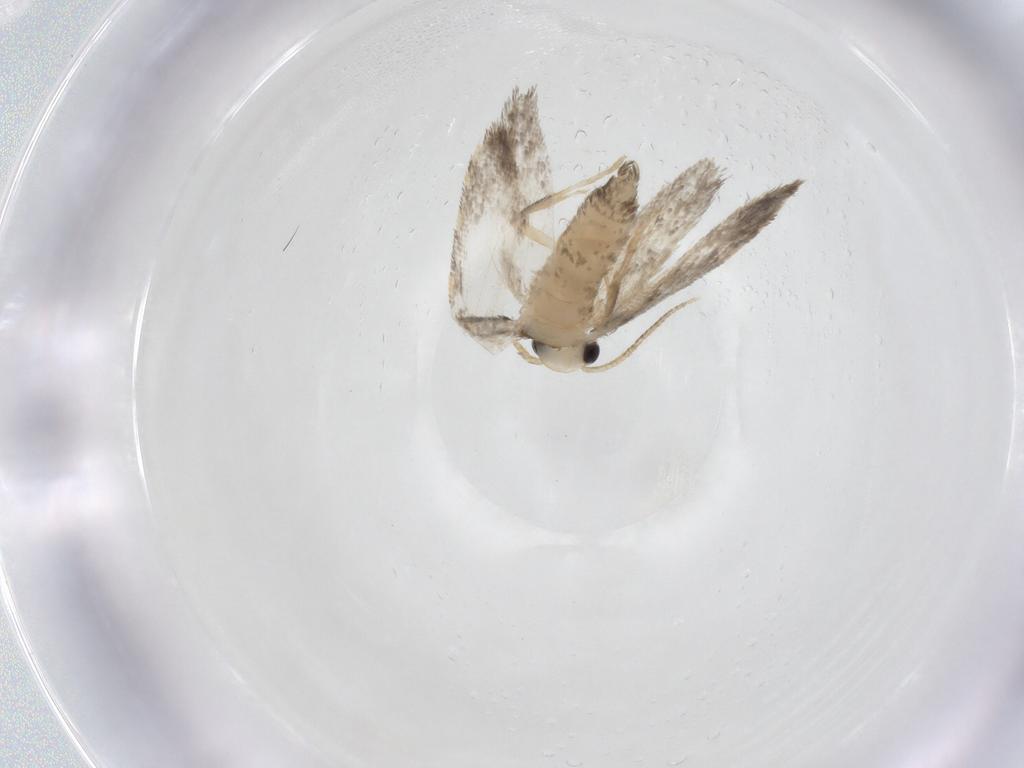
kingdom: Animalia
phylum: Arthropoda
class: Insecta
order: Lepidoptera
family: Psychidae
